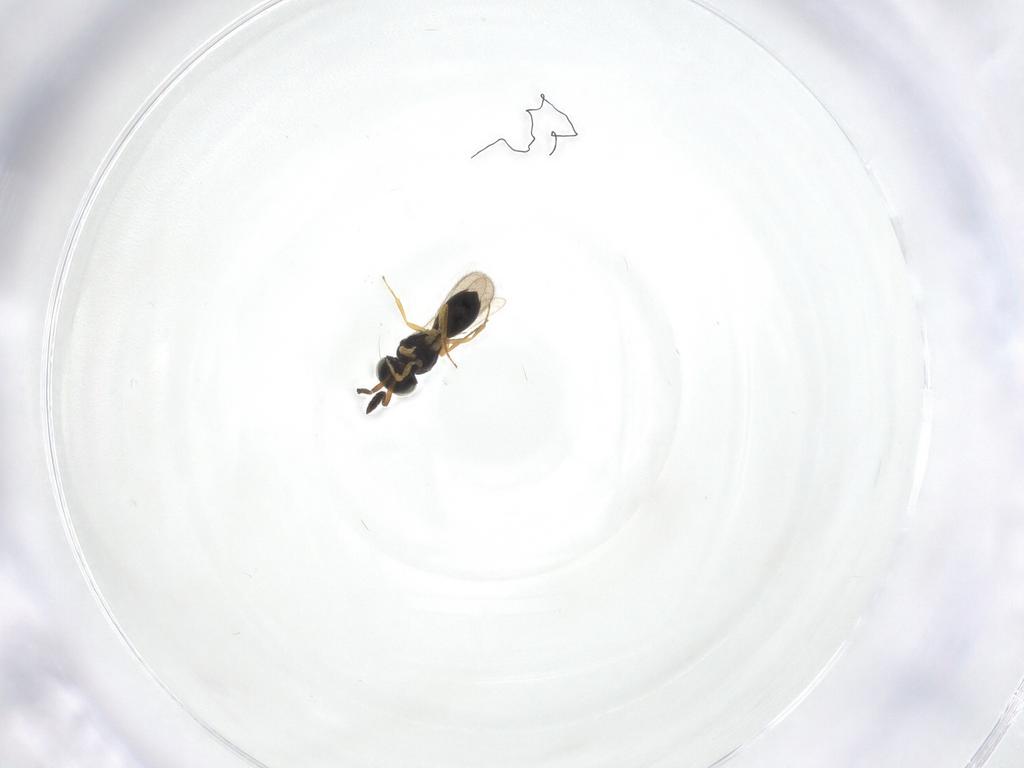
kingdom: Animalia
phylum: Arthropoda
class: Insecta
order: Hymenoptera
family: Scelionidae
